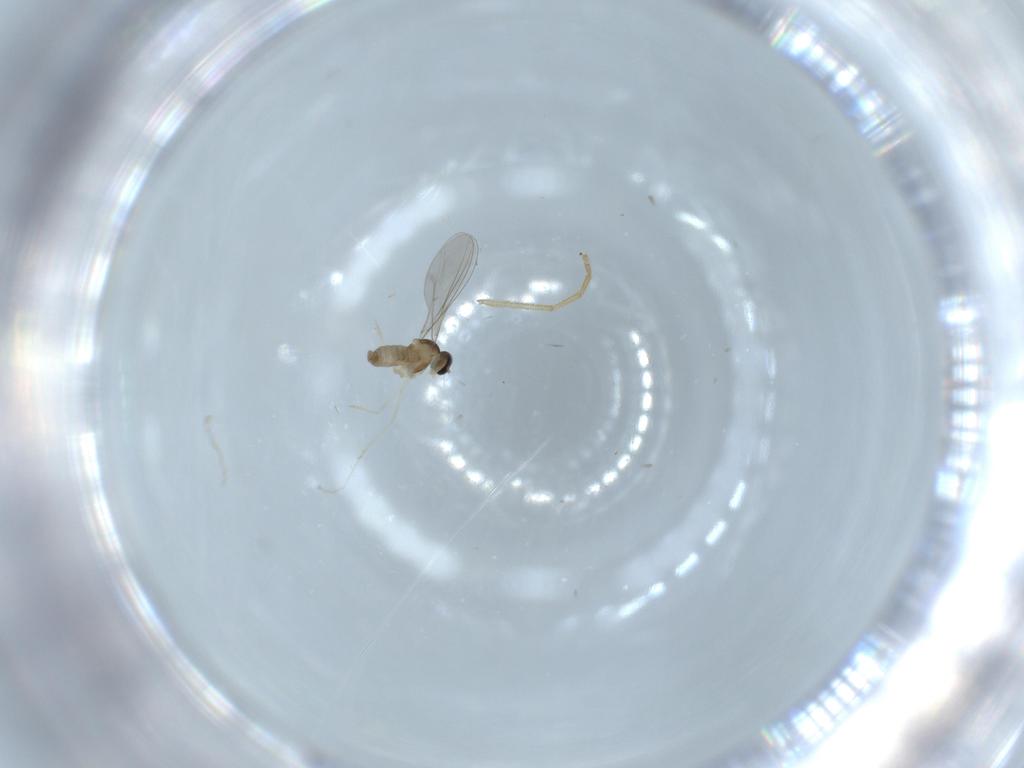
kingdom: Animalia
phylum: Arthropoda
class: Insecta
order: Diptera
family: Chironomidae
